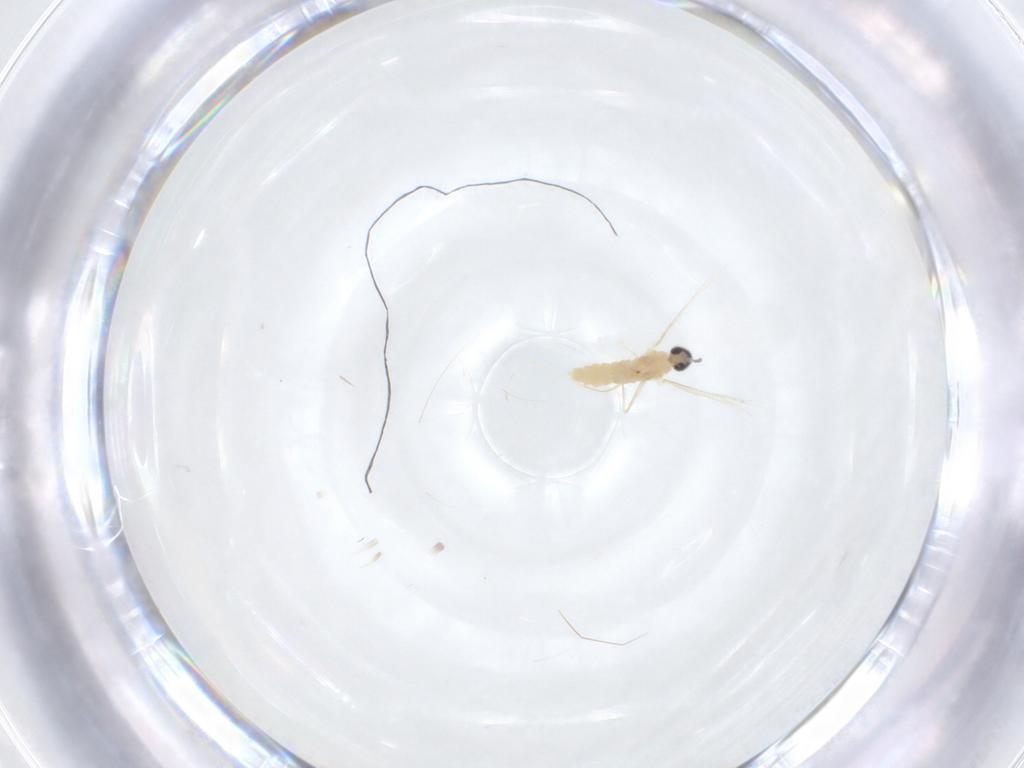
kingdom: Animalia
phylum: Arthropoda
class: Insecta
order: Diptera
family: Cecidomyiidae
